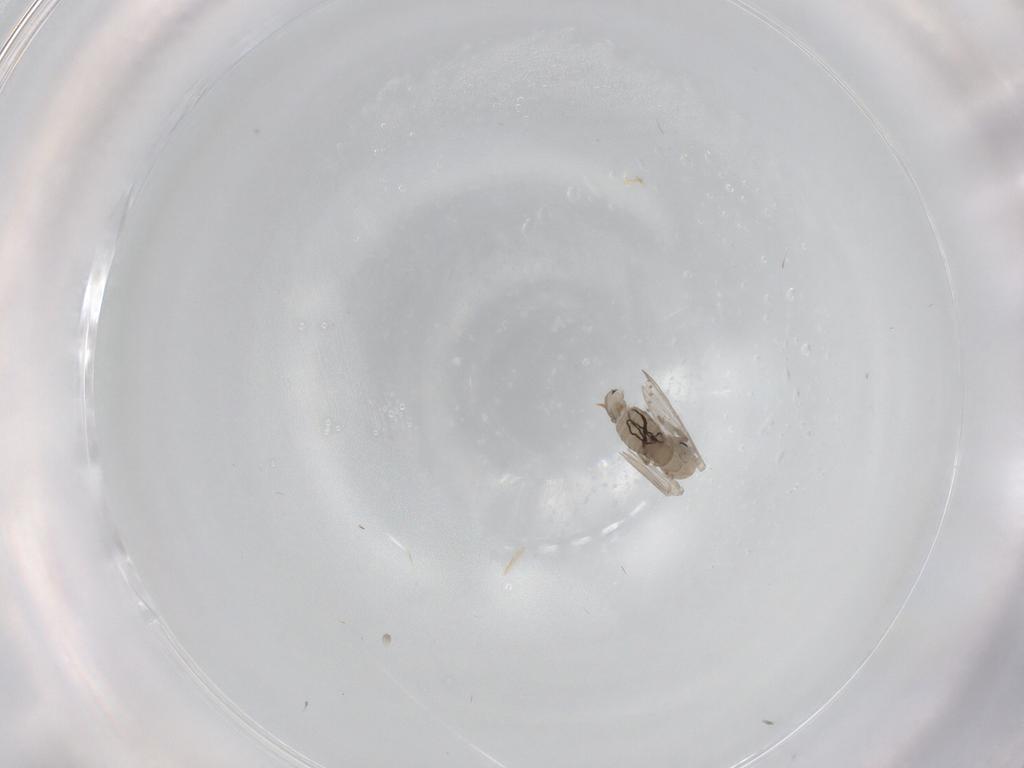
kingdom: Animalia
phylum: Arthropoda
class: Insecta
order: Diptera
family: Psychodidae
